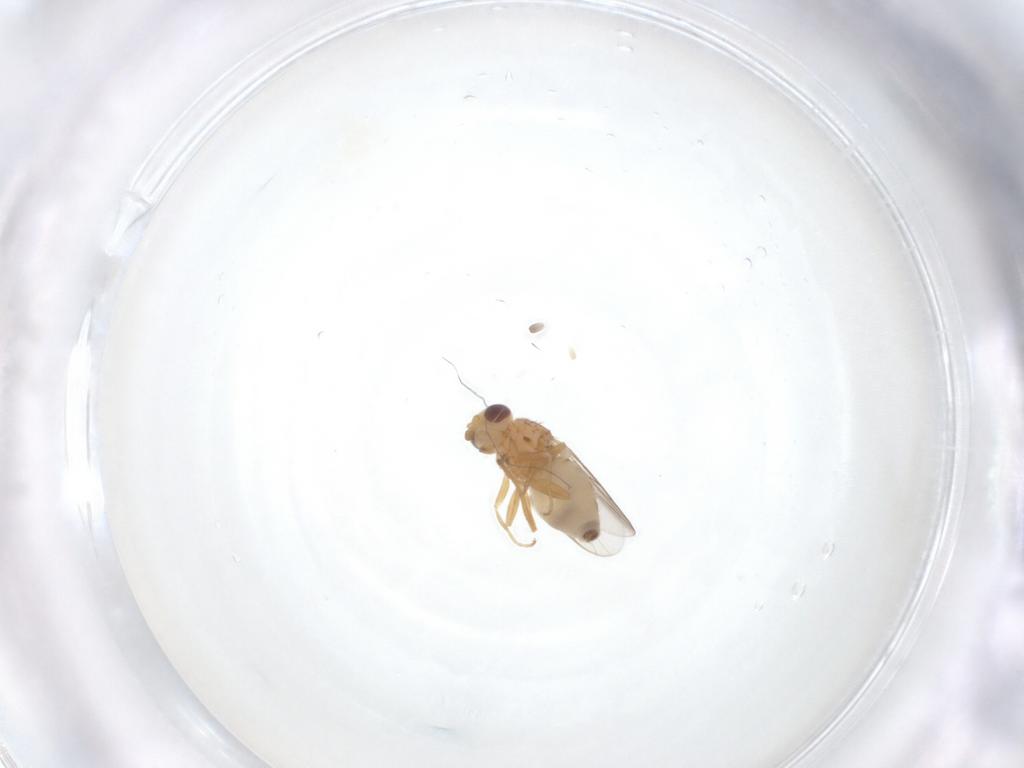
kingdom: Animalia
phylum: Arthropoda
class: Insecta
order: Diptera
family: Chloropidae
